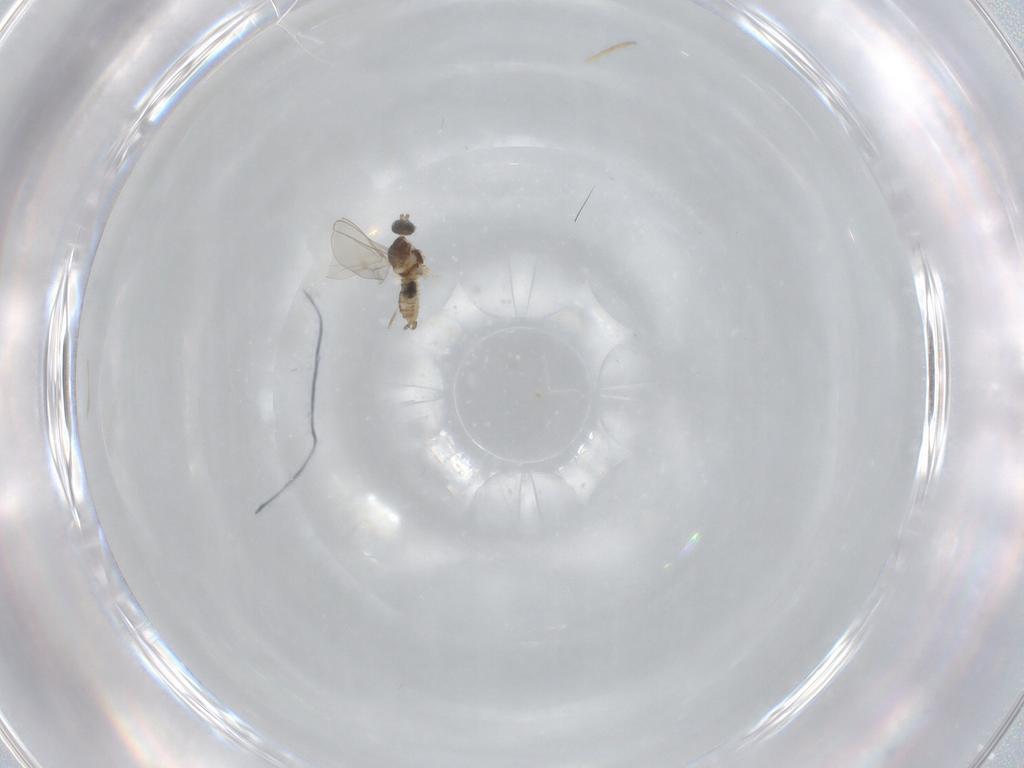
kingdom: Animalia
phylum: Arthropoda
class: Insecta
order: Diptera
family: Cecidomyiidae
